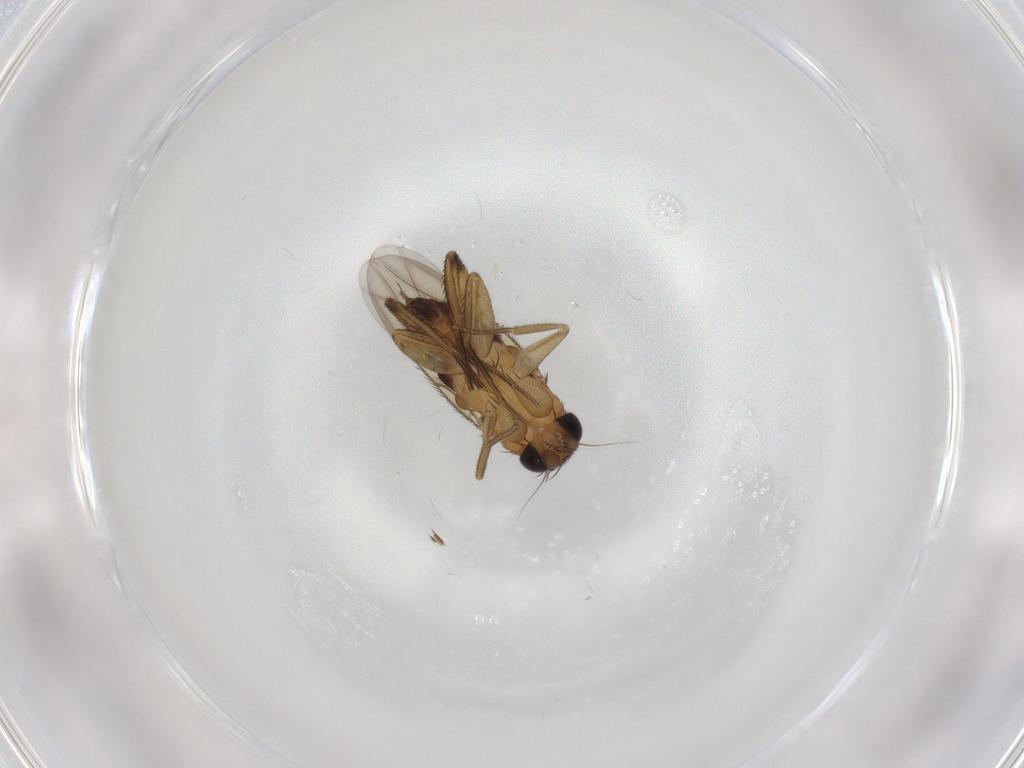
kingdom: Animalia
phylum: Arthropoda
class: Insecta
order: Diptera
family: Phoridae
